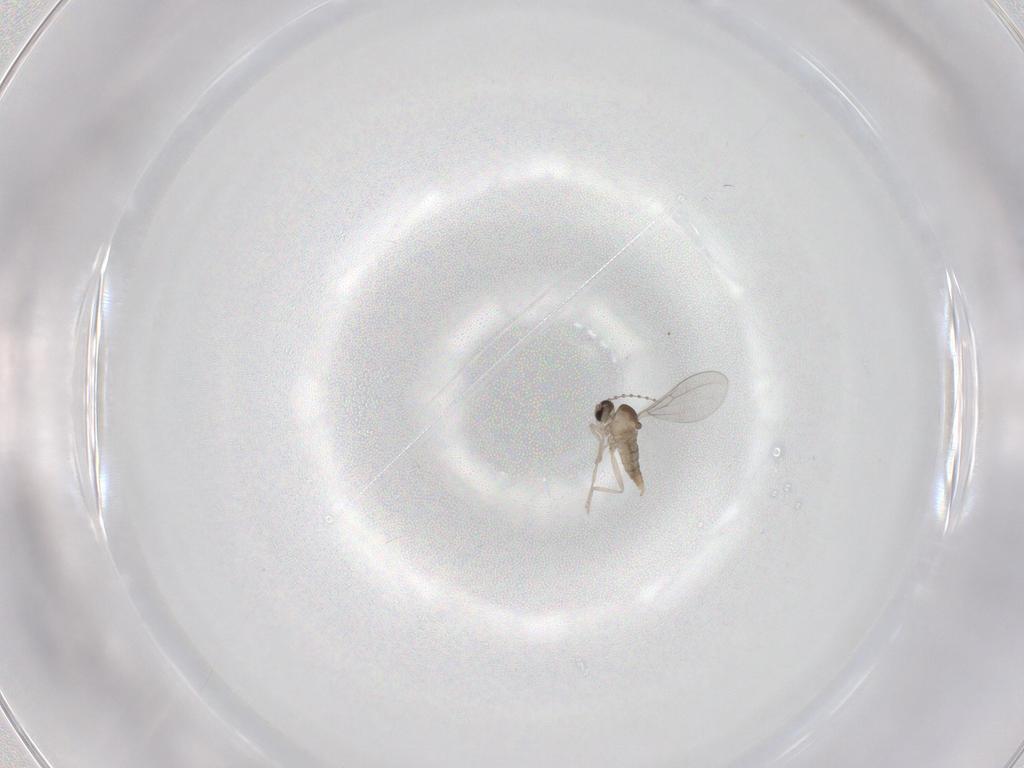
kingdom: Animalia
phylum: Arthropoda
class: Insecta
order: Diptera
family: Cecidomyiidae
